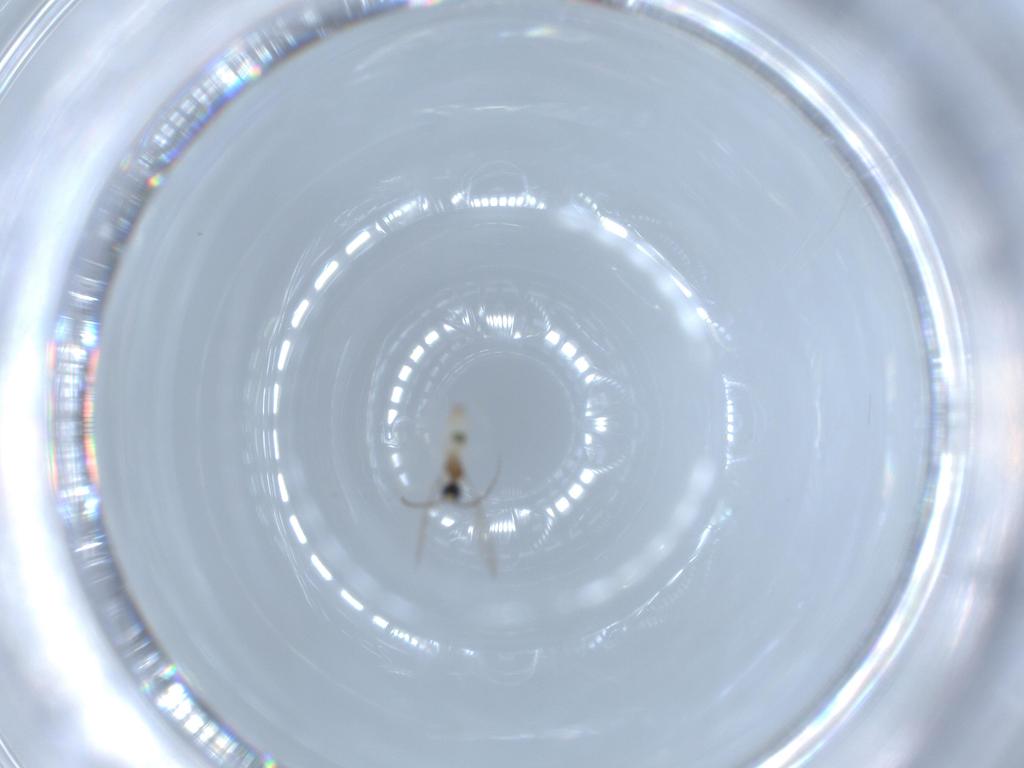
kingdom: Animalia
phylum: Arthropoda
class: Insecta
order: Diptera
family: Cecidomyiidae
